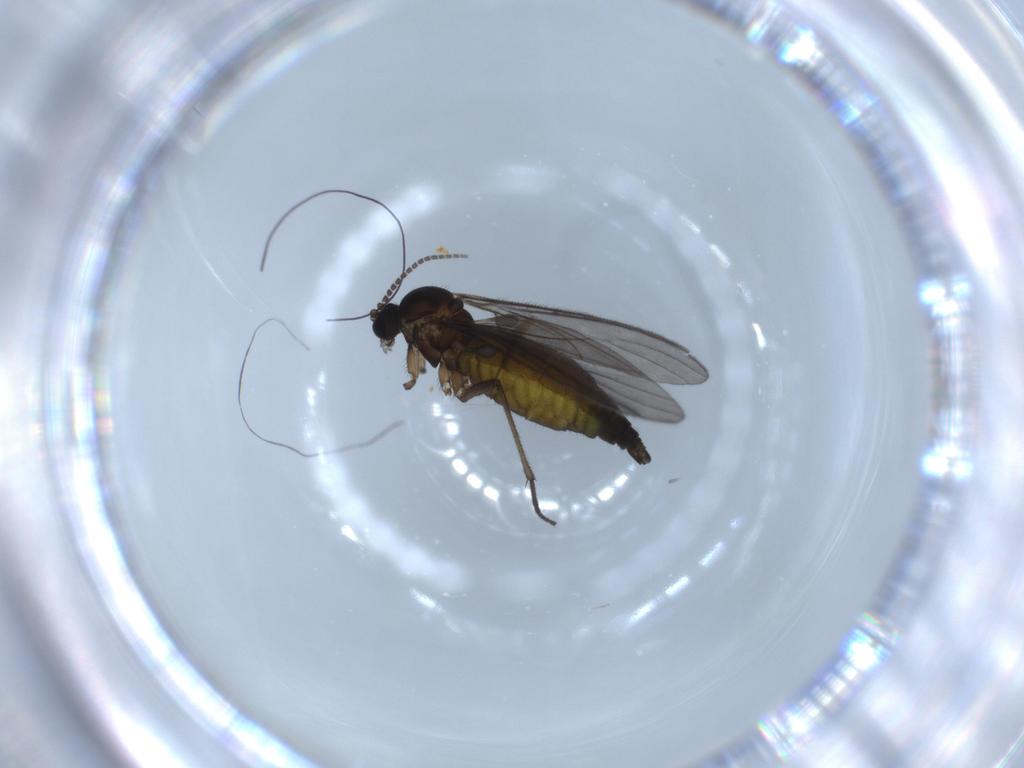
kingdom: Animalia
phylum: Arthropoda
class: Insecta
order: Diptera
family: Sciaridae
